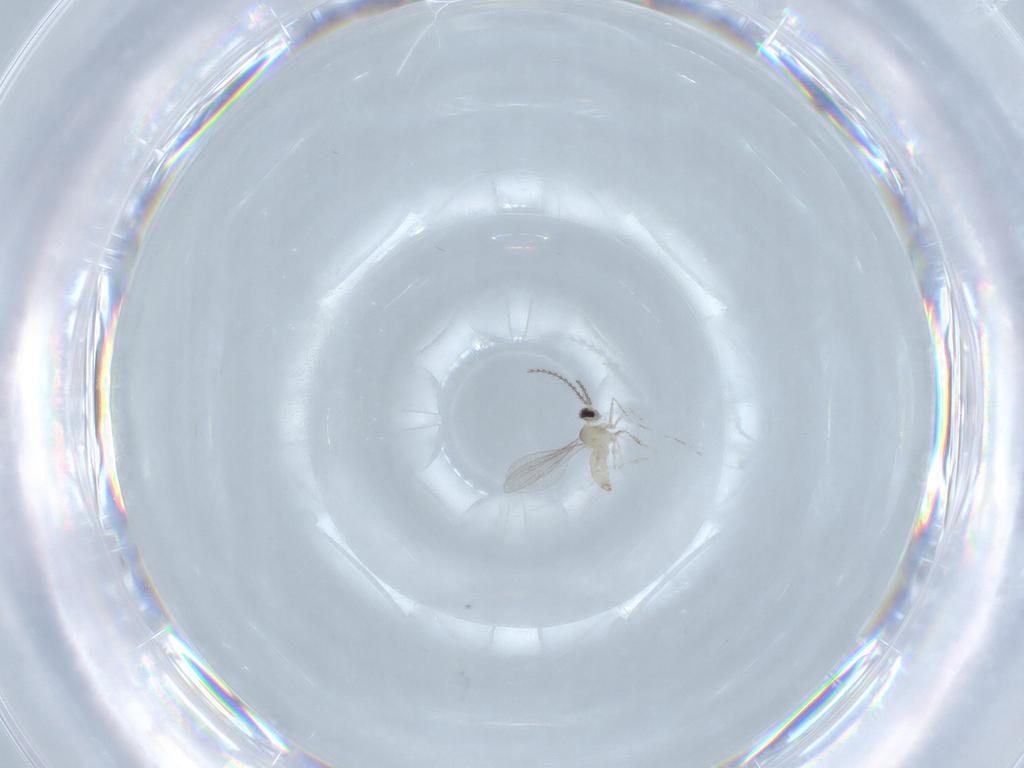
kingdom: Animalia
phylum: Arthropoda
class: Insecta
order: Diptera
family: Cecidomyiidae
